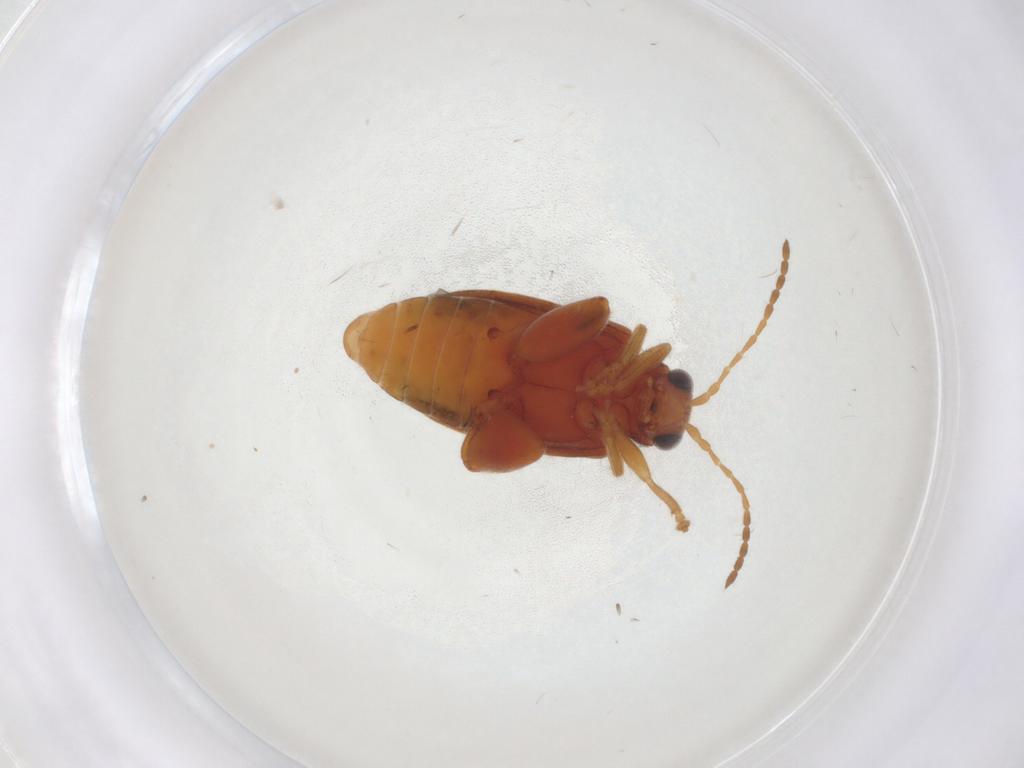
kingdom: Animalia
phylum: Arthropoda
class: Insecta
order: Coleoptera
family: Chrysomelidae
